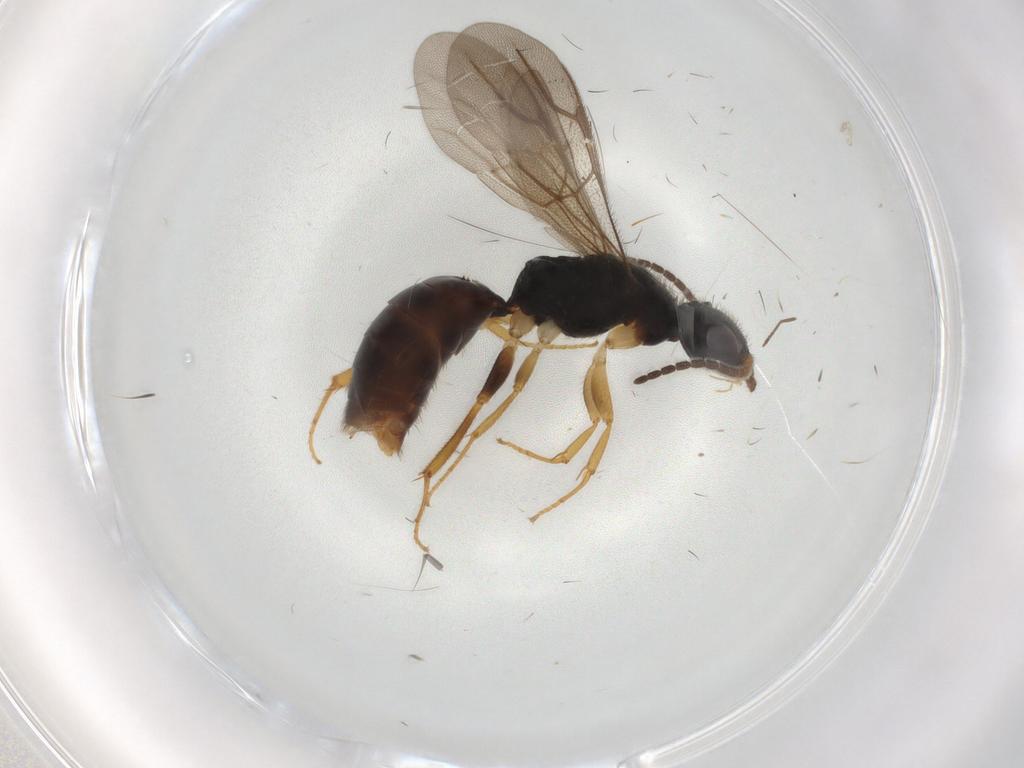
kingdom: Animalia
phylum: Arthropoda
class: Insecta
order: Hymenoptera
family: Bethylidae
